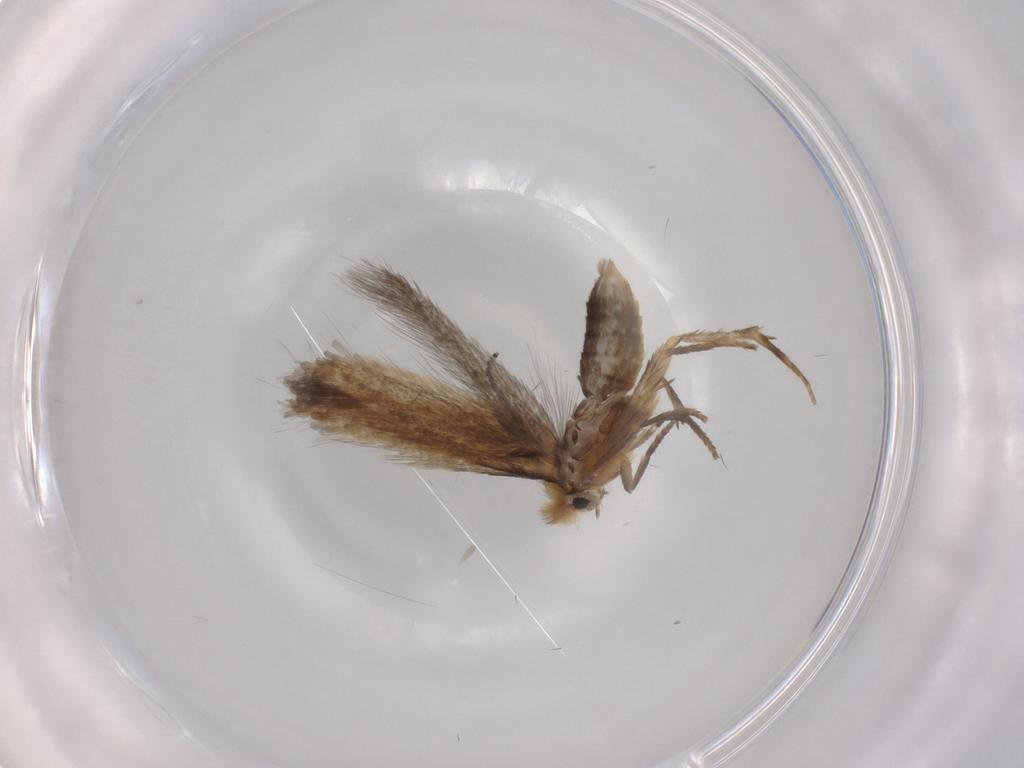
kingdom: Animalia
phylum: Arthropoda
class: Insecta
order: Lepidoptera
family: Nepticulidae
